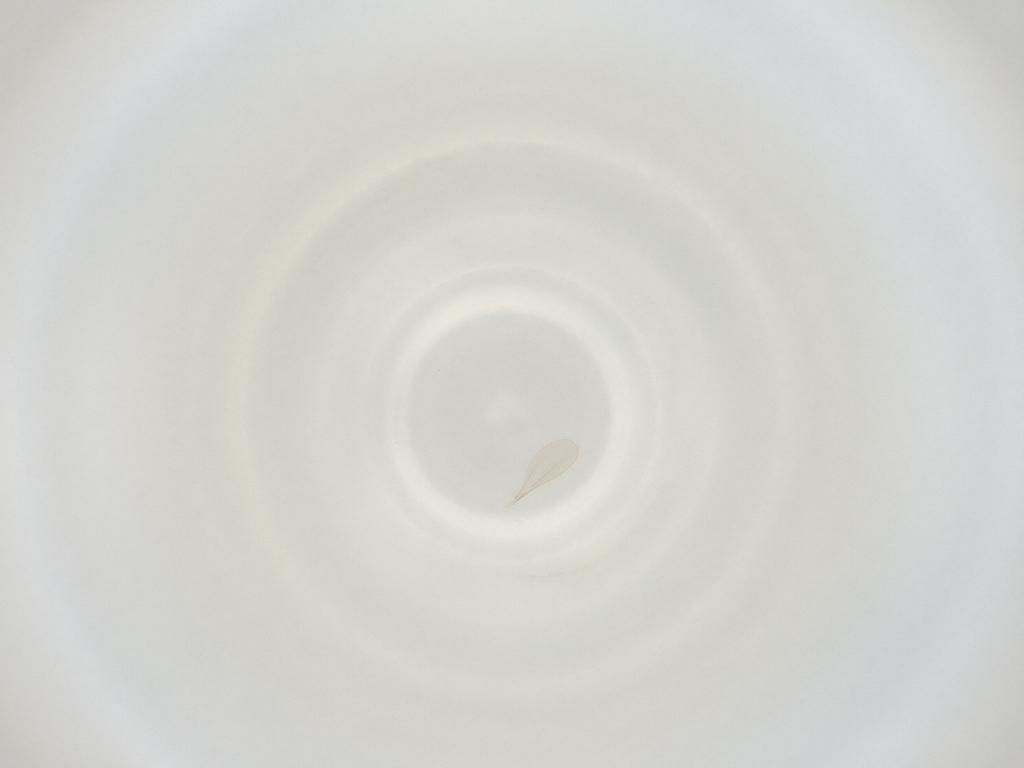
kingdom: Animalia
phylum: Arthropoda
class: Insecta
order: Diptera
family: Cecidomyiidae
